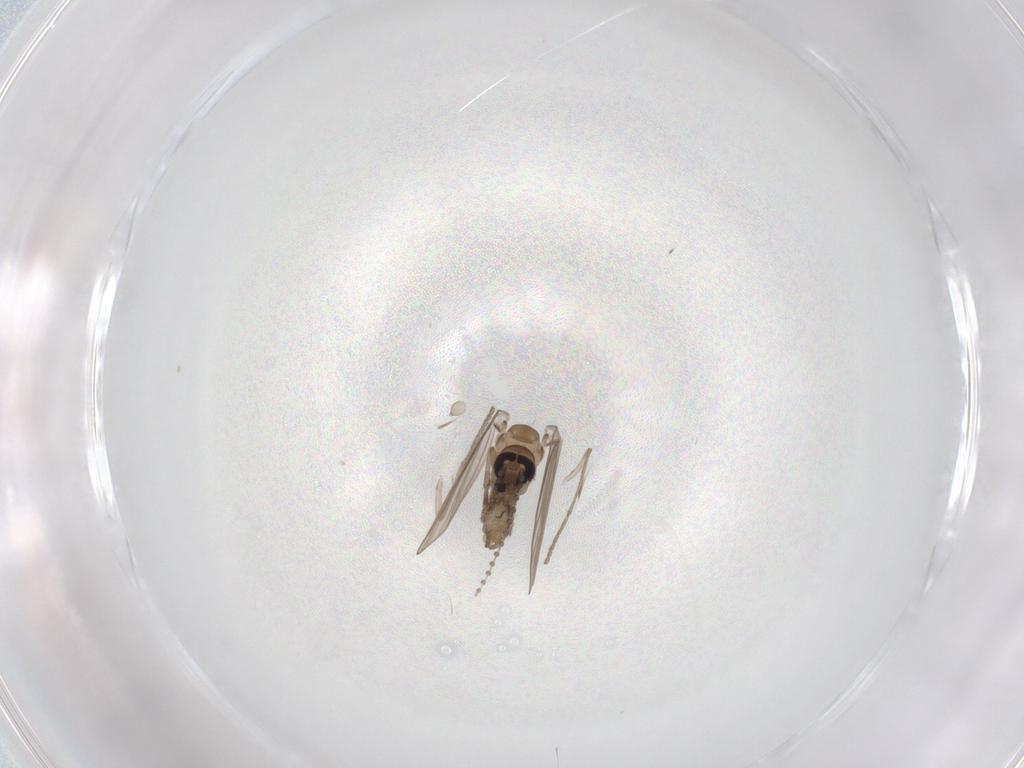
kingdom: Animalia
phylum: Arthropoda
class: Insecta
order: Diptera
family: Psychodidae
